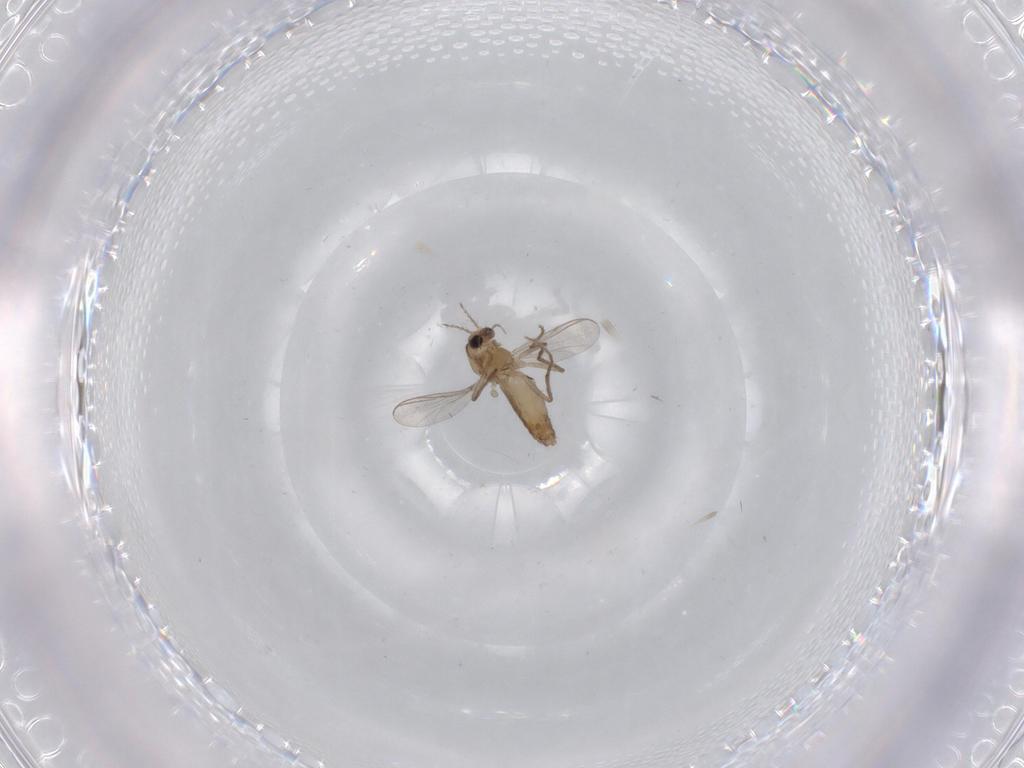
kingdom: Animalia
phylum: Arthropoda
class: Insecta
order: Diptera
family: Chironomidae
